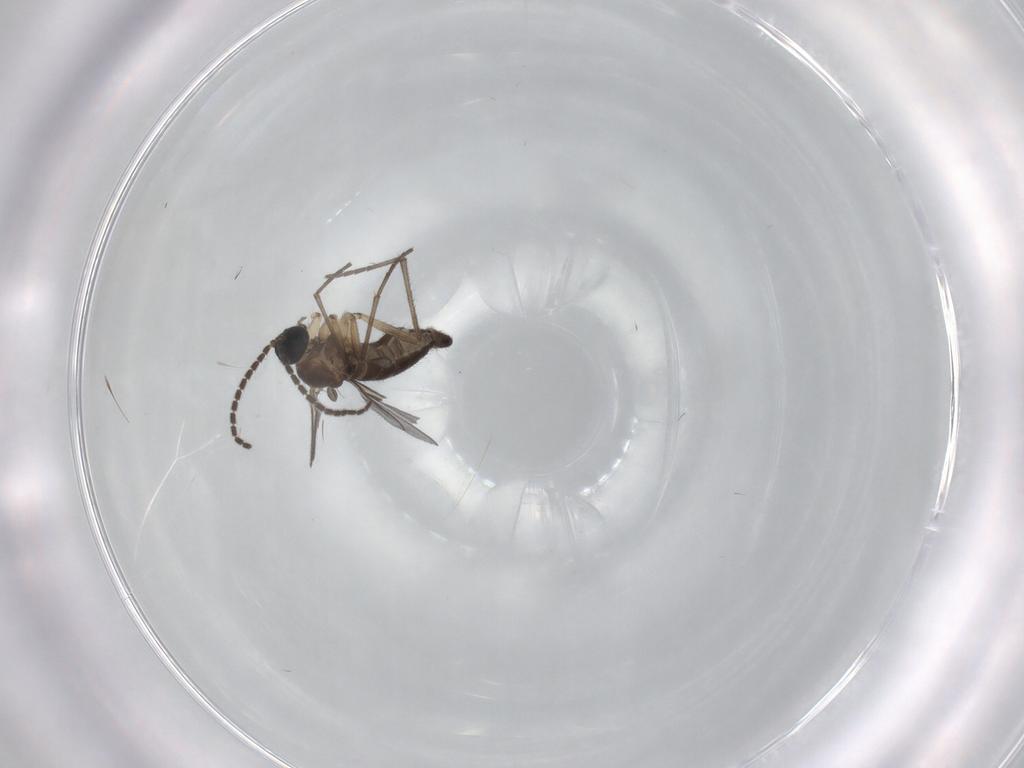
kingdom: Animalia
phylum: Arthropoda
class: Insecta
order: Diptera
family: Sciaridae
